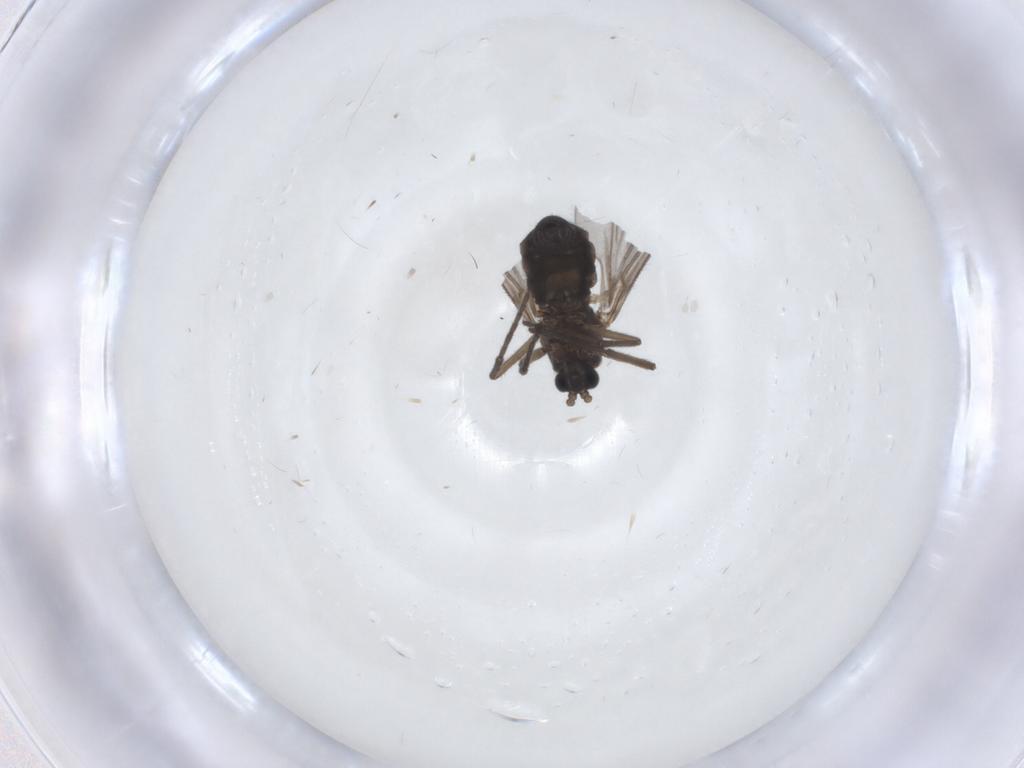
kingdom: Animalia
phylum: Arthropoda
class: Insecta
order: Diptera
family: Sciaridae
